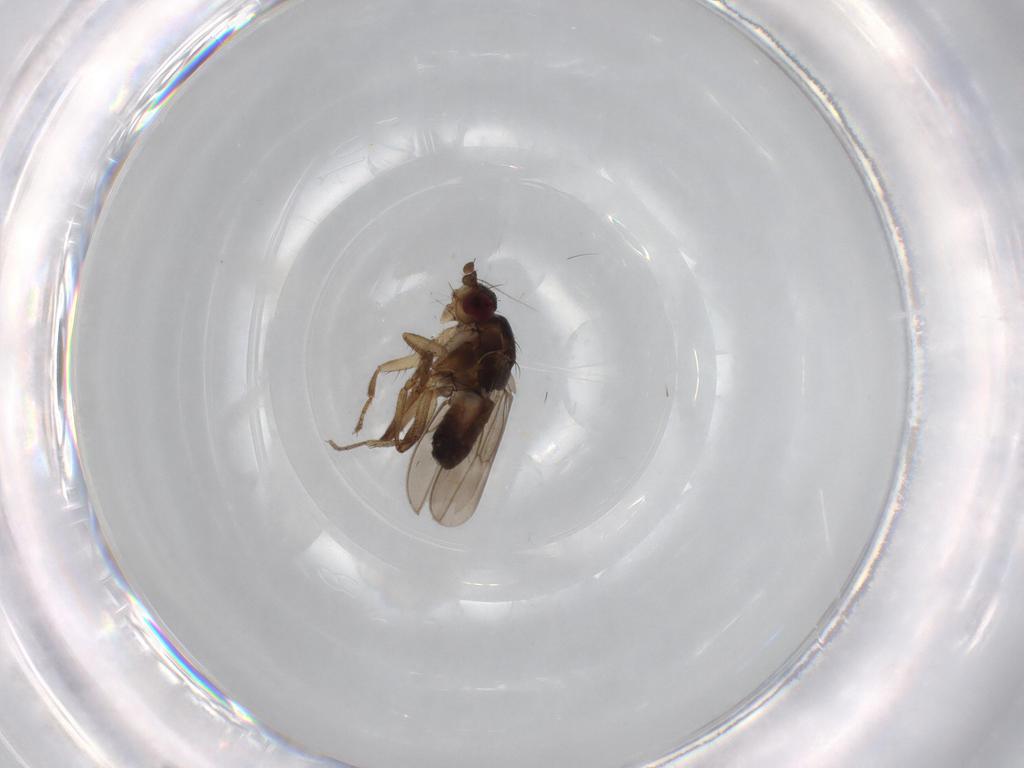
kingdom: Animalia
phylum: Arthropoda
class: Insecta
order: Diptera
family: Sphaeroceridae
